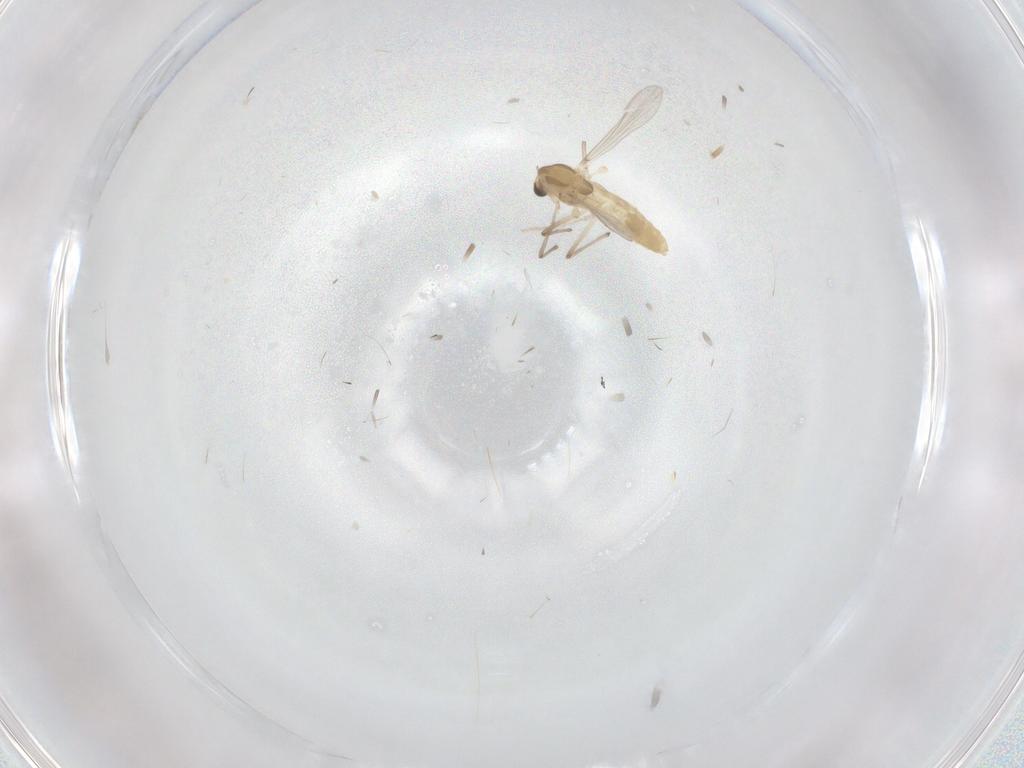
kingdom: Animalia
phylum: Arthropoda
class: Insecta
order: Diptera
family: Chironomidae
